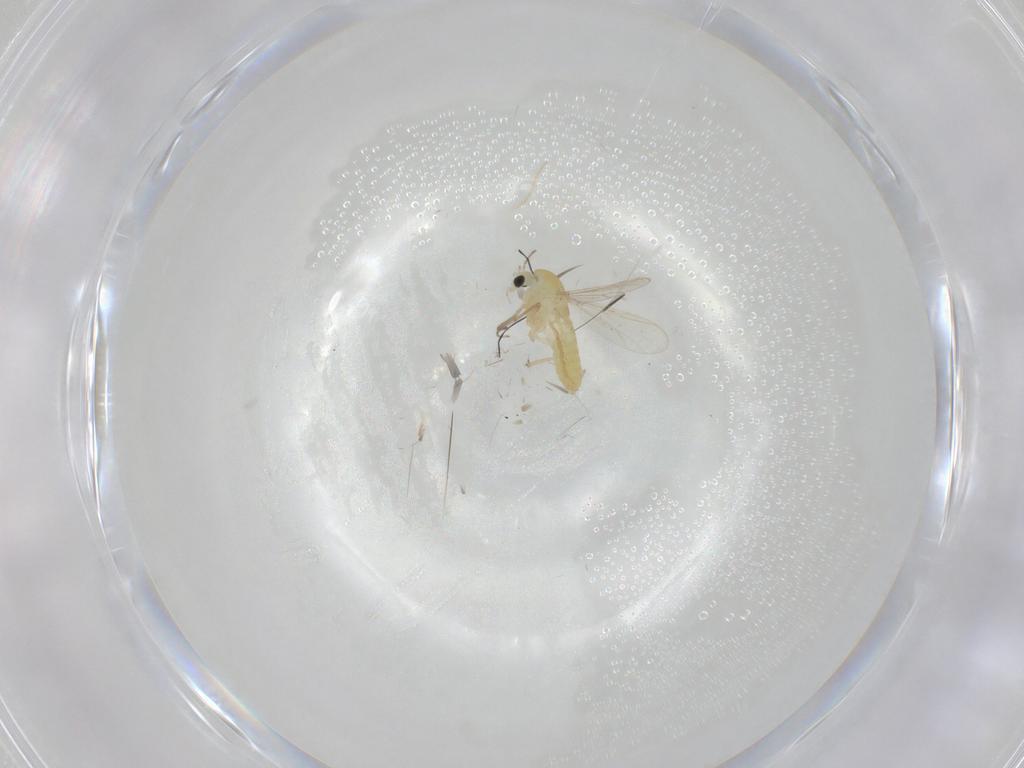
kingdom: Animalia
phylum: Arthropoda
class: Insecta
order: Diptera
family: Chironomidae
